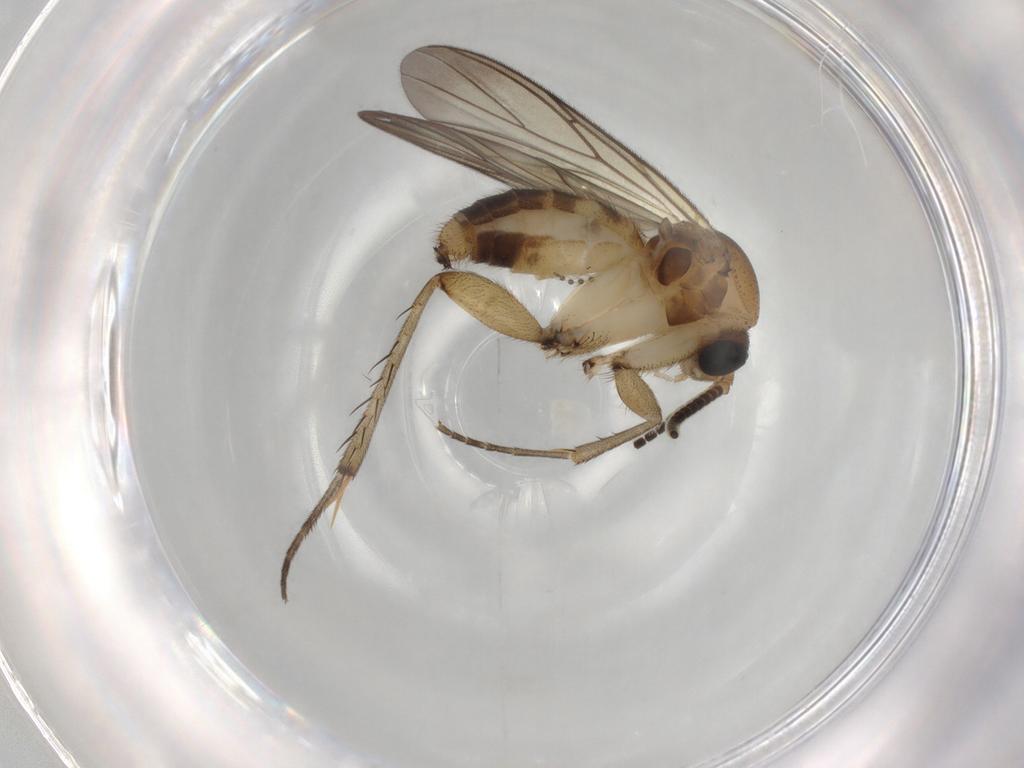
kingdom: Animalia
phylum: Arthropoda
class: Insecta
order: Diptera
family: Mycetophilidae
